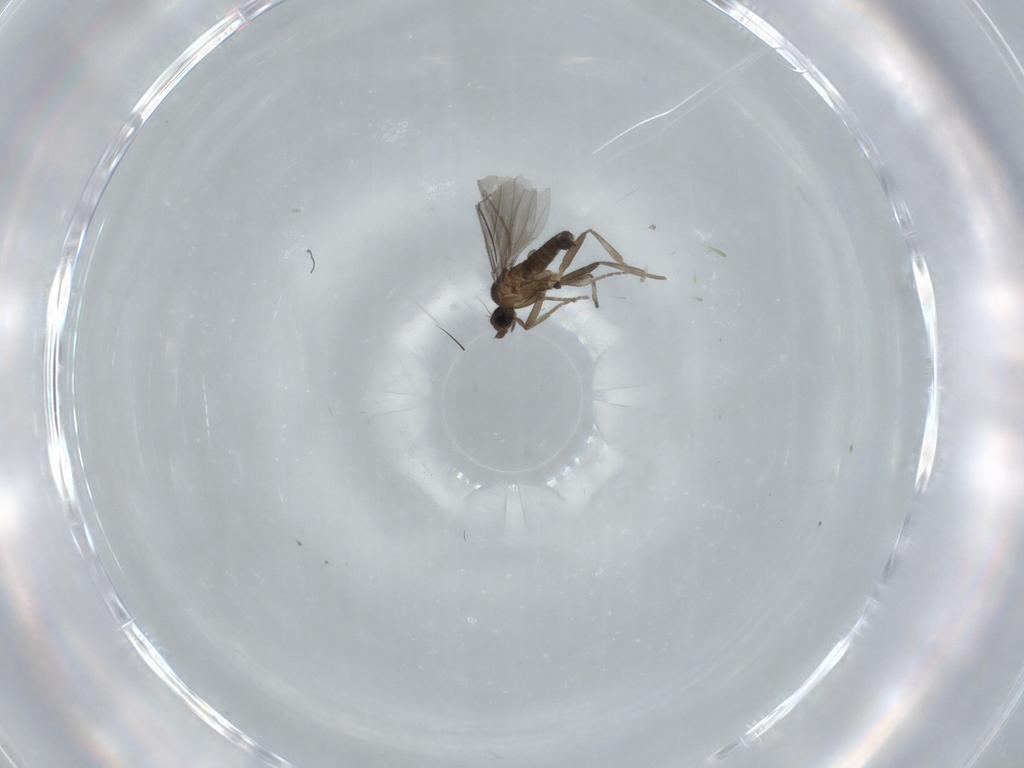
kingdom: Animalia
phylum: Arthropoda
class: Insecta
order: Diptera
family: Phoridae
